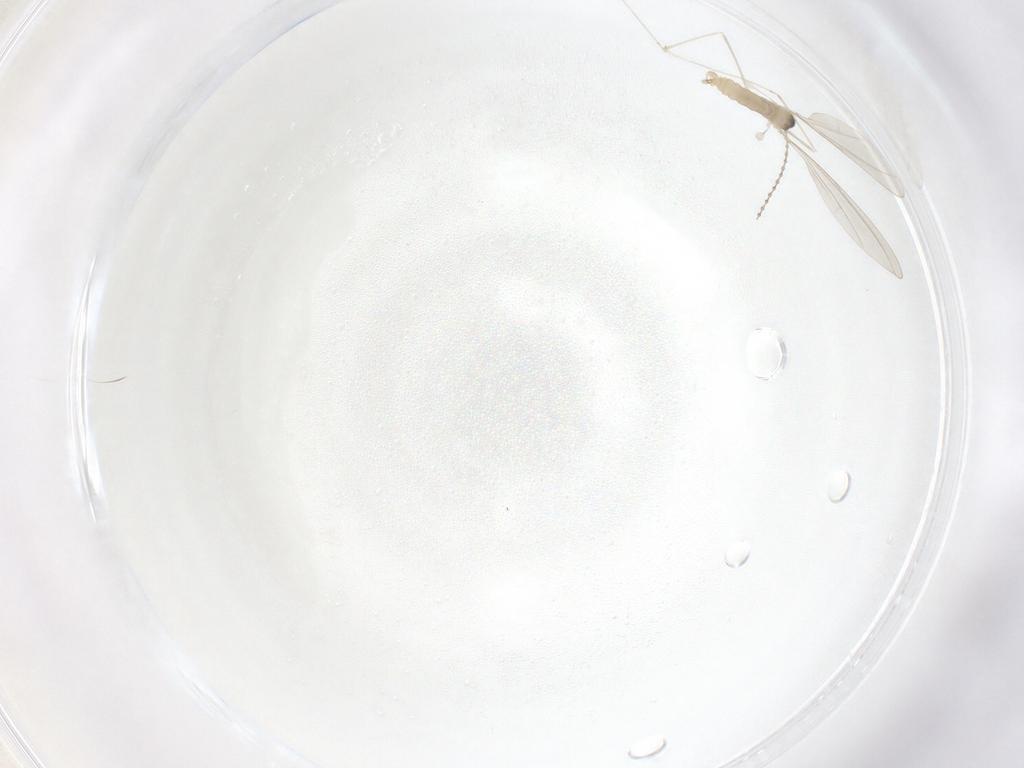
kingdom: Animalia
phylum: Arthropoda
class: Insecta
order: Diptera
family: Cecidomyiidae
